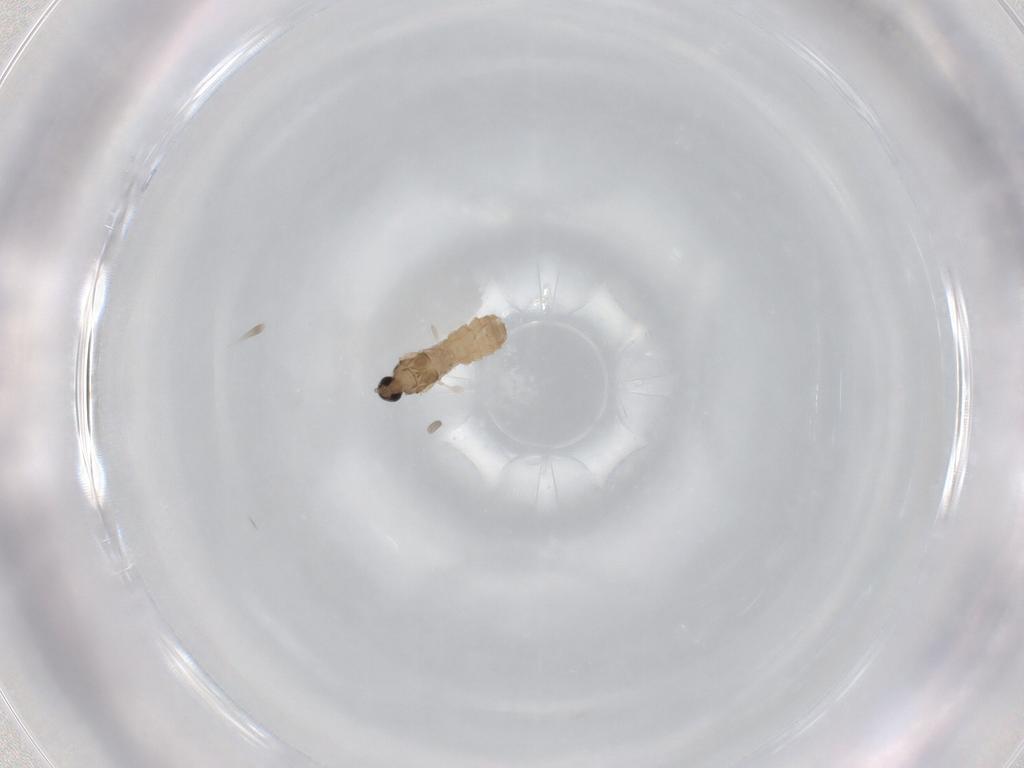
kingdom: Animalia
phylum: Arthropoda
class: Insecta
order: Diptera
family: Cecidomyiidae
